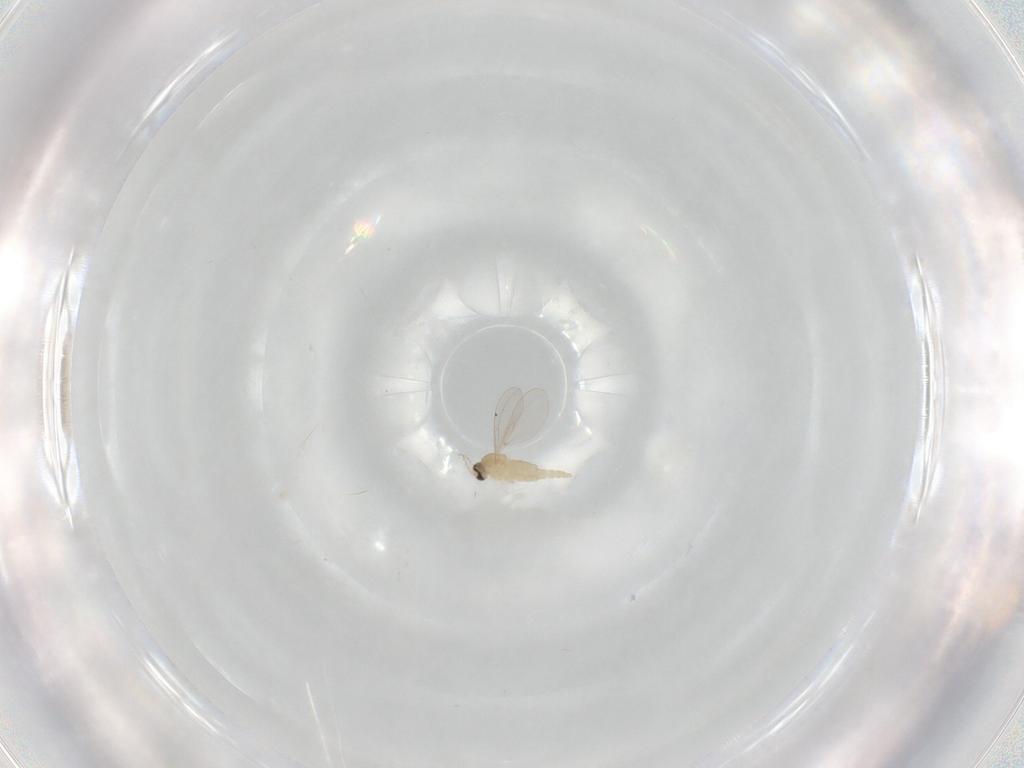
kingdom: Animalia
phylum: Arthropoda
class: Insecta
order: Diptera
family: Cecidomyiidae
